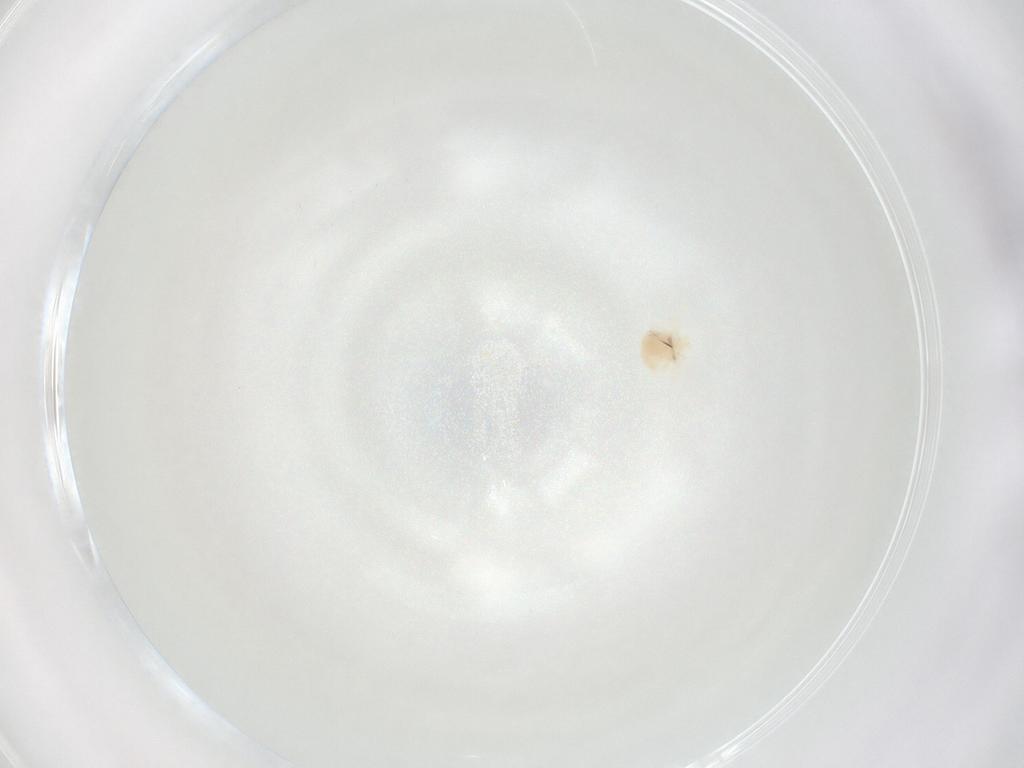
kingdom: Animalia
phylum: Arthropoda
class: Arachnida
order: Trombidiformes
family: Anystidae
